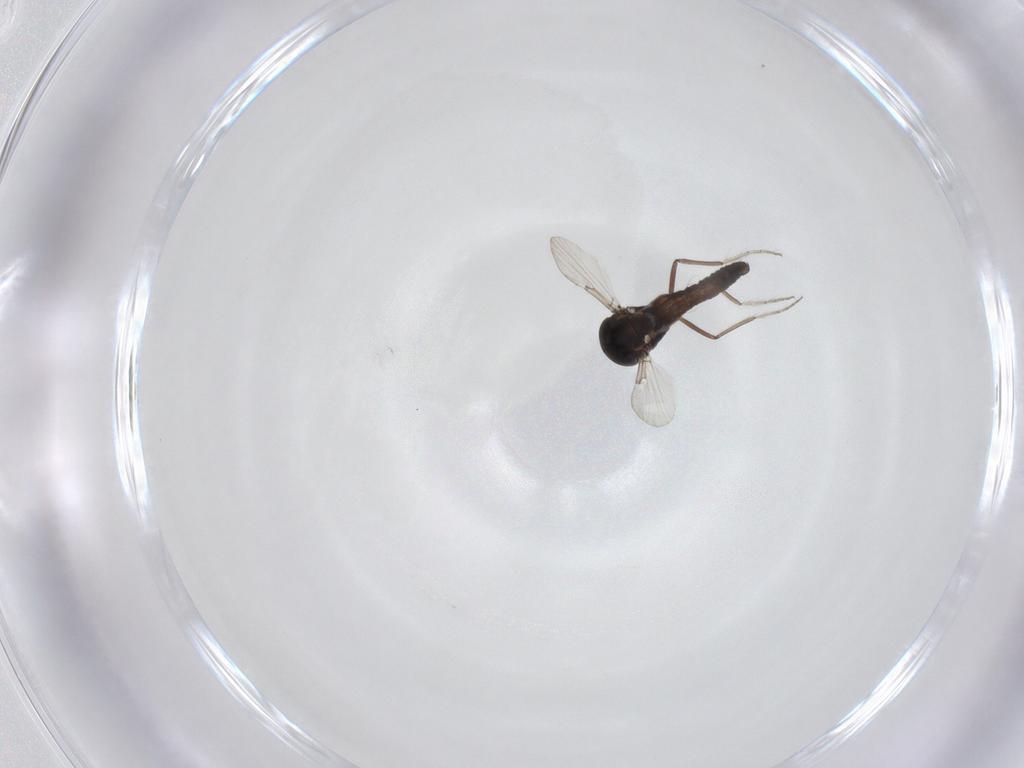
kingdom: Animalia
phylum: Arthropoda
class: Insecta
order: Diptera
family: Ceratopogonidae
